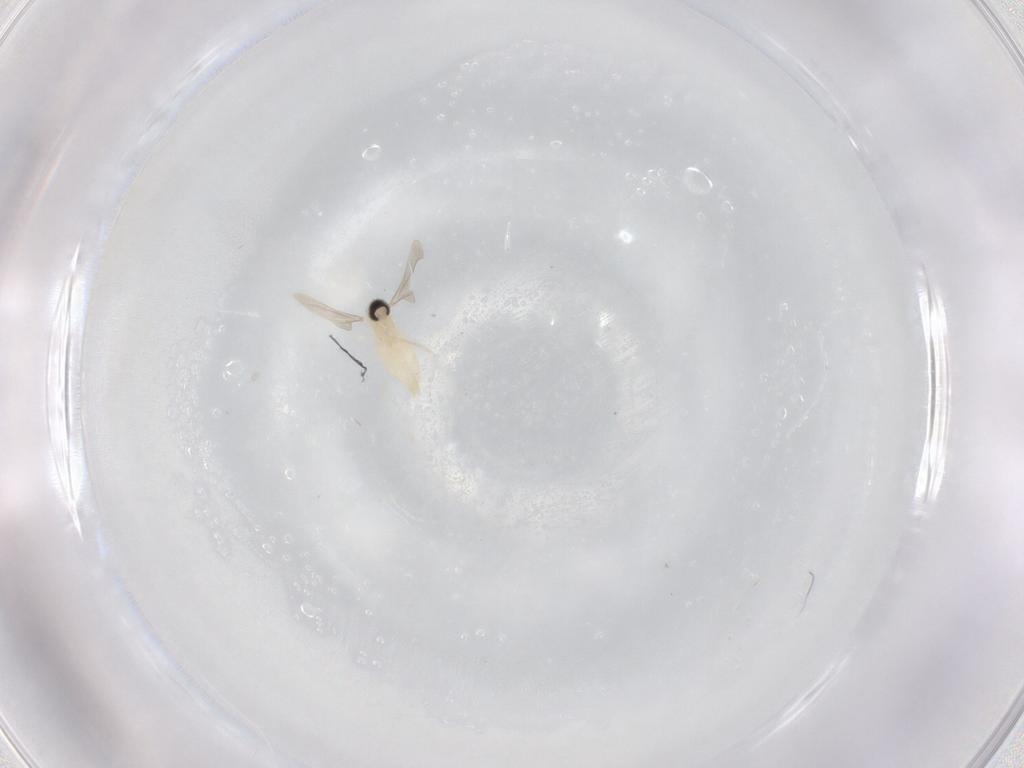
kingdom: Animalia
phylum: Arthropoda
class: Insecta
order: Diptera
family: Cecidomyiidae
